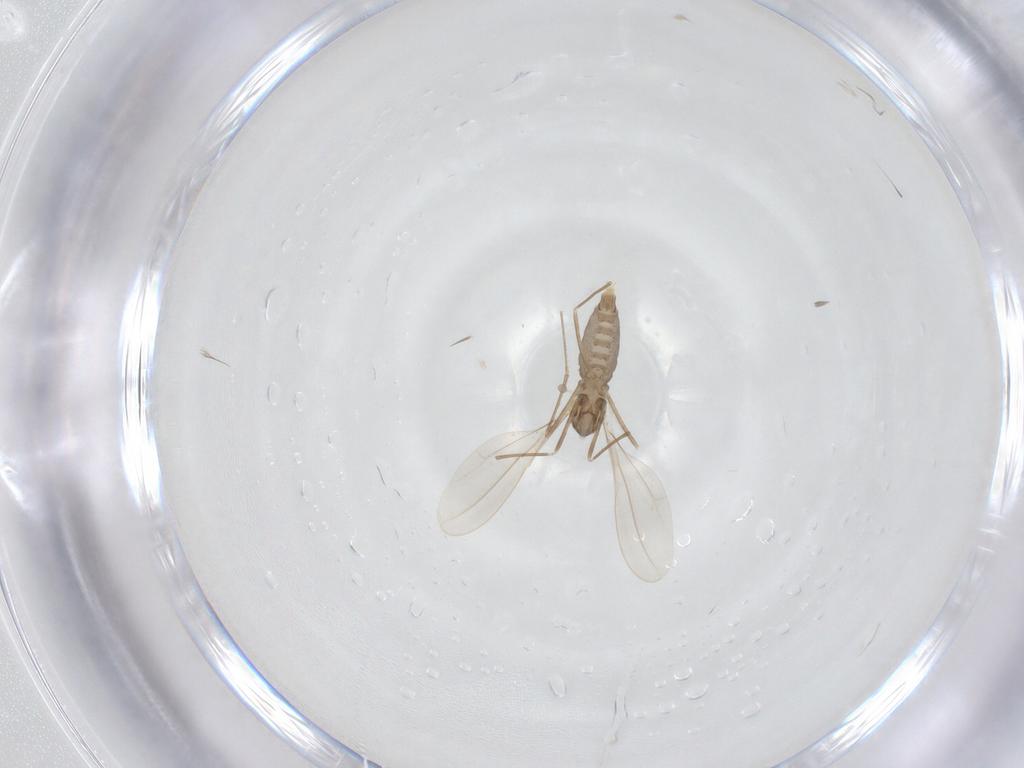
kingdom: Animalia
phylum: Arthropoda
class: Insecta
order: Diptera
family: Cecidomyiidae
